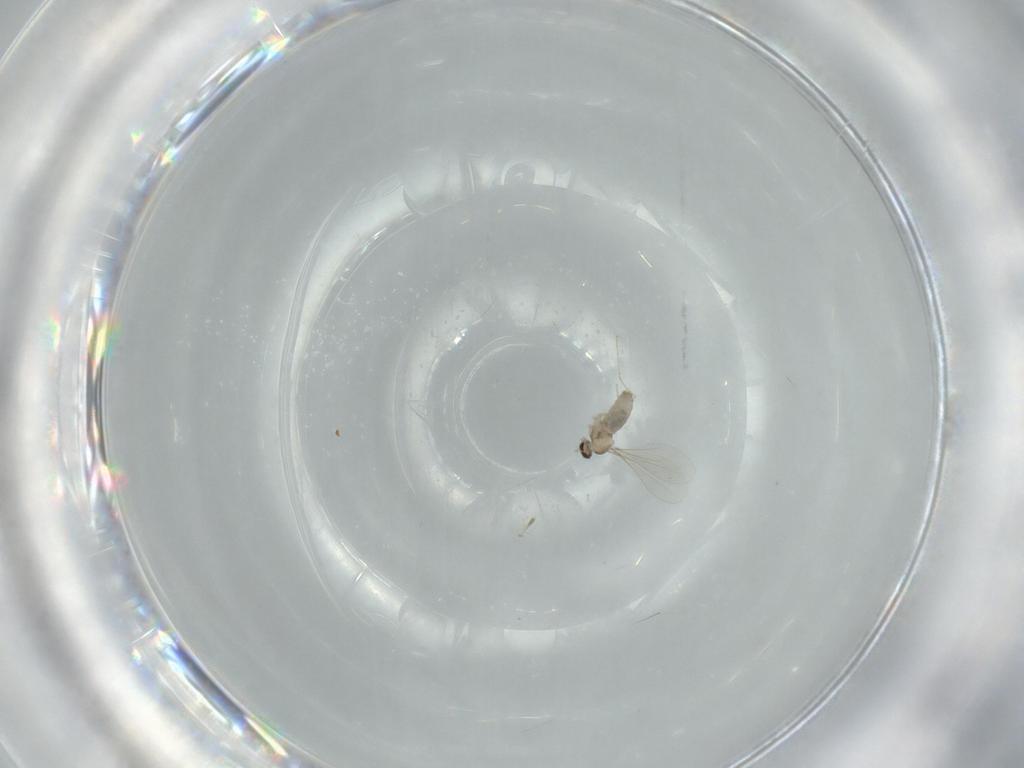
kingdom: Animalia
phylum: Arthropoda
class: Insecta
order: Diptera
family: Cecidomyiidae
